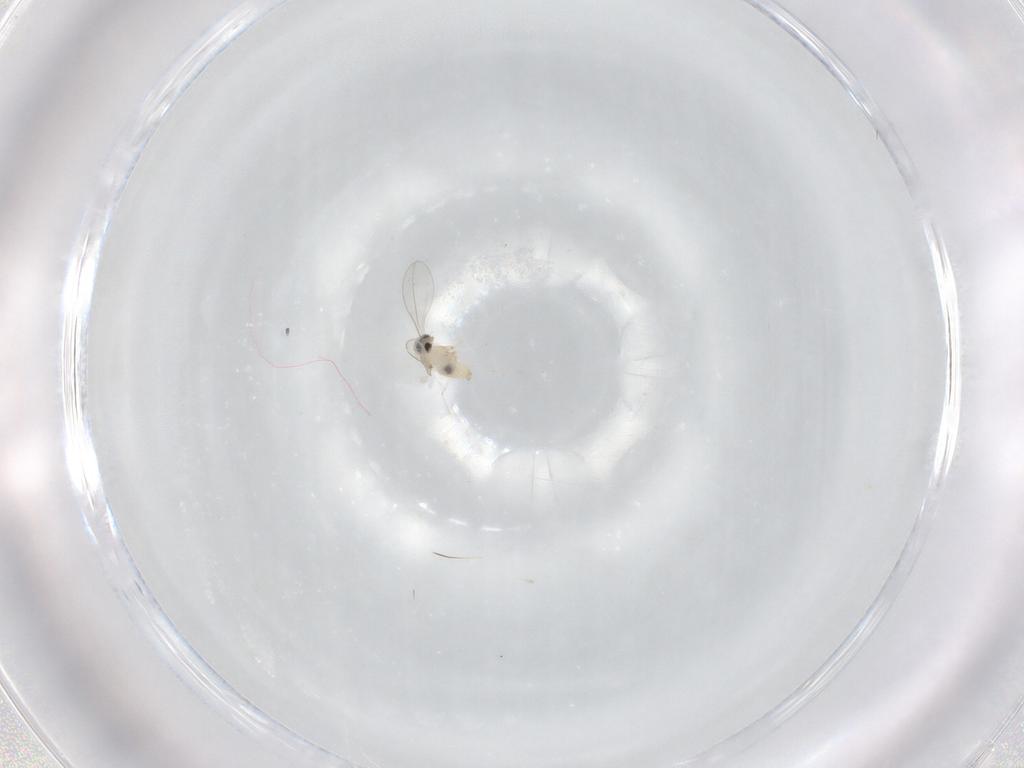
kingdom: Animalia
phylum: Arthropoda
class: Insecta
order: Diptera
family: Cecidomyiidae
